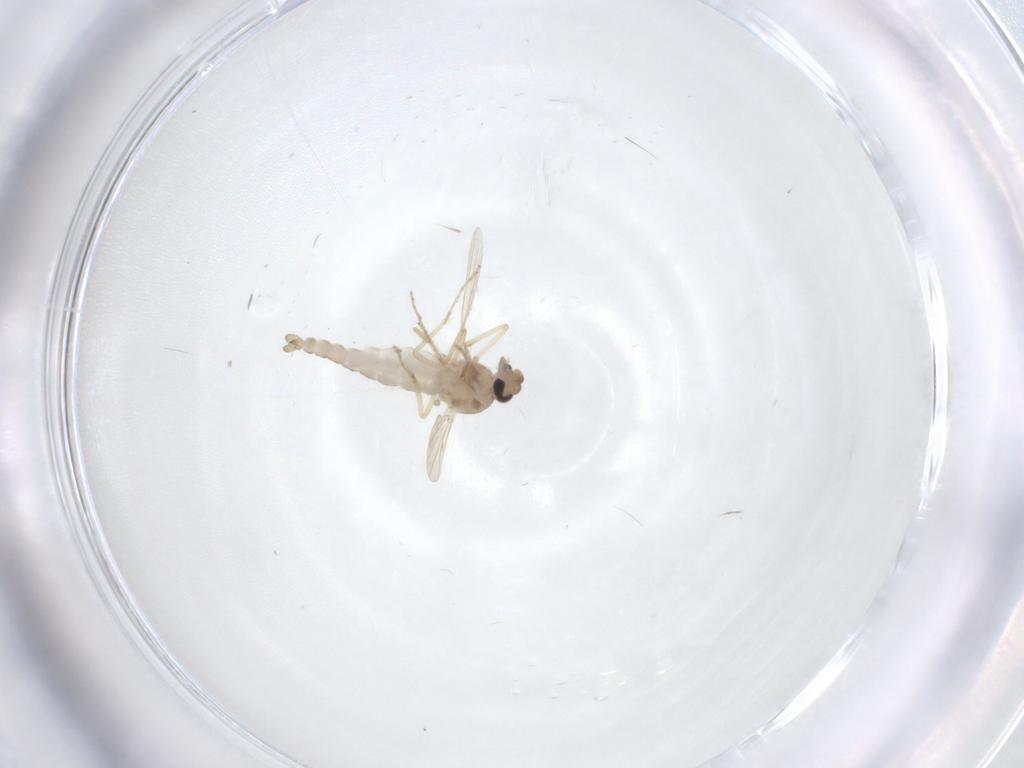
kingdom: Animalia
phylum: Arthropoda
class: Insecta
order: Diptera
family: Ceratopogonidae
